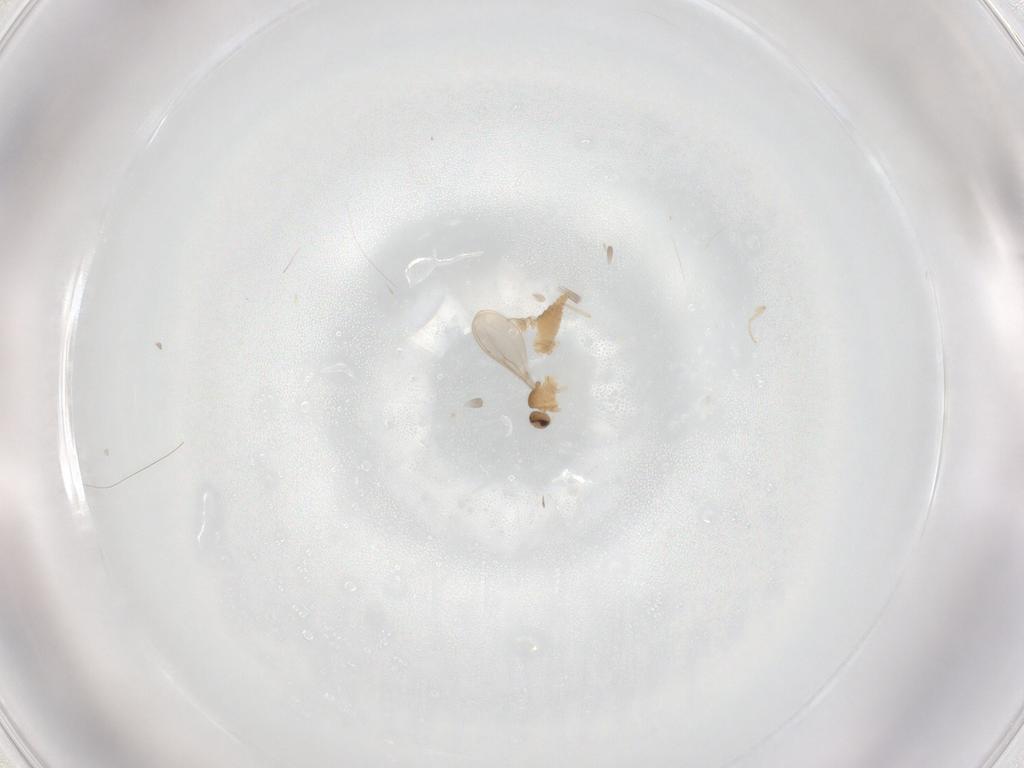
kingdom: Animalia
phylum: Arthropoda
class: Insecta
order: Diptera
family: Cecidomyiidae
